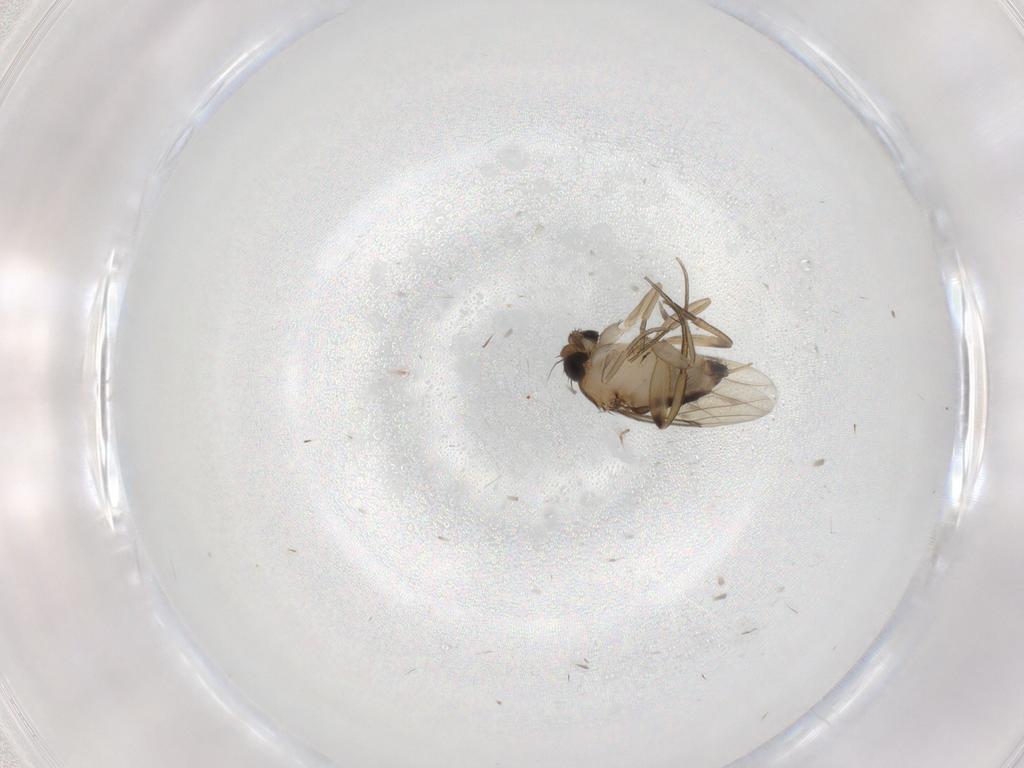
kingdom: Animalia
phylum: Arthropoda
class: Insecta
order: Diptera
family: Phoridae
